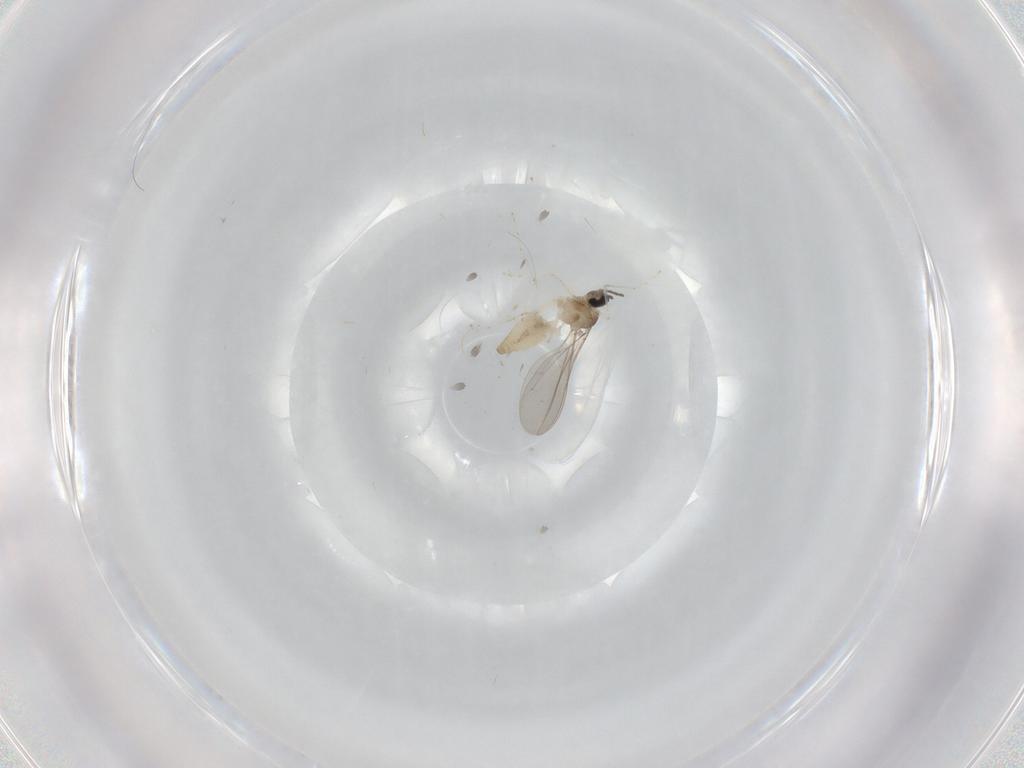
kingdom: Animalia
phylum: Arthropoda
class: Insecta
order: Diptera
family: Cecidomyiidae
